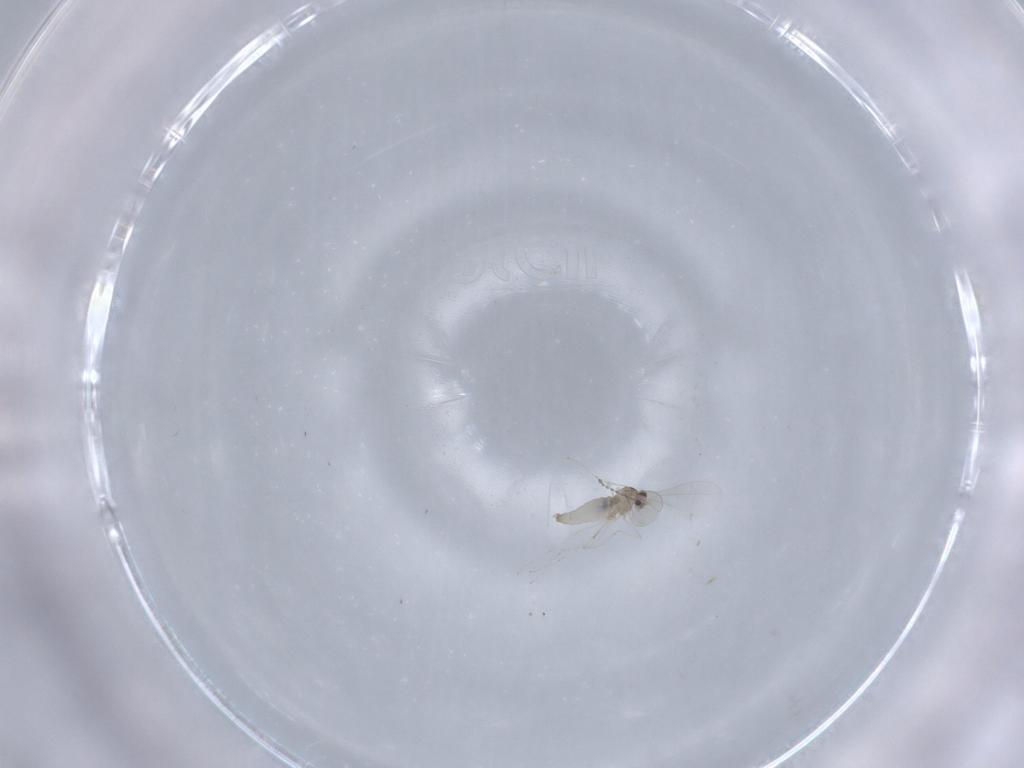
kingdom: Animalia
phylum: Arthropoda
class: Insecta
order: Diptera
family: Cecidomyiidae
